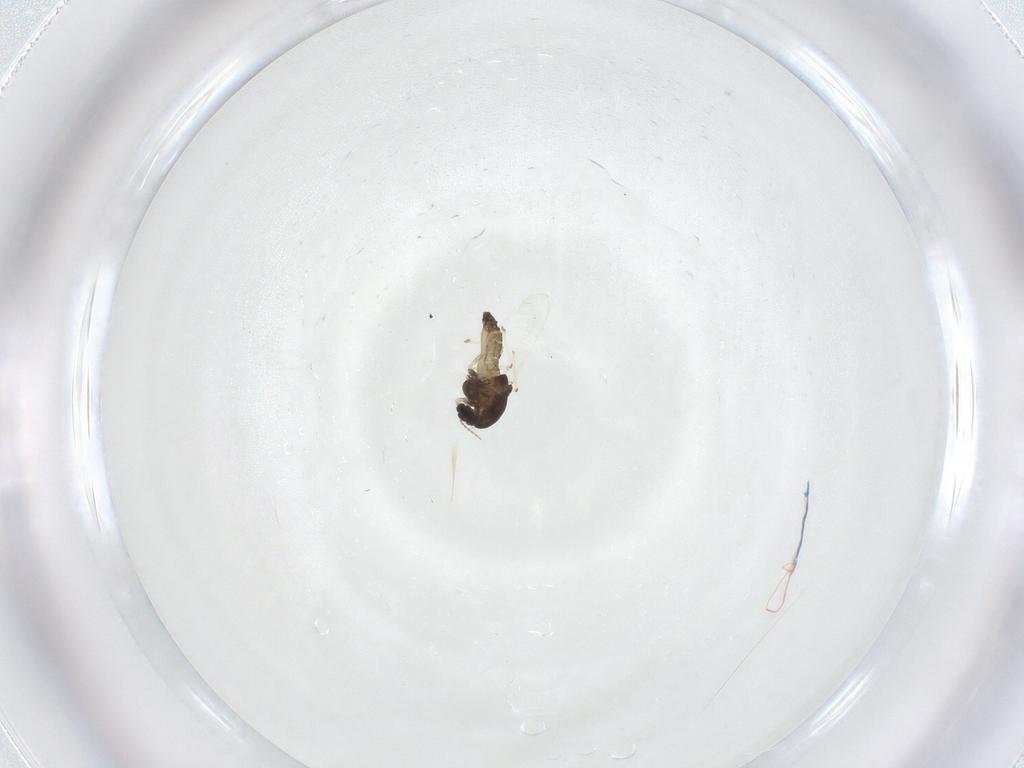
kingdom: Animalia
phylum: Arthropoda
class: Insecta
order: Diptera
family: Chironomidae
